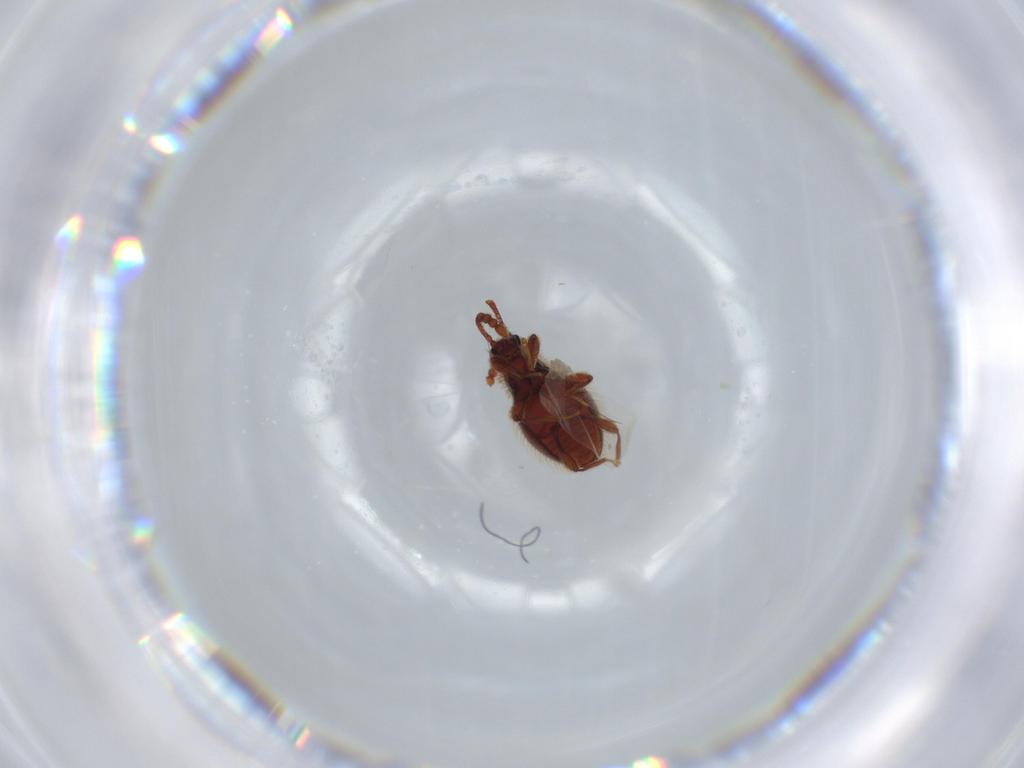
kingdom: Animalia
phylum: Arthropoda
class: Insecta
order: Coleoptera
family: Staphylinidae
